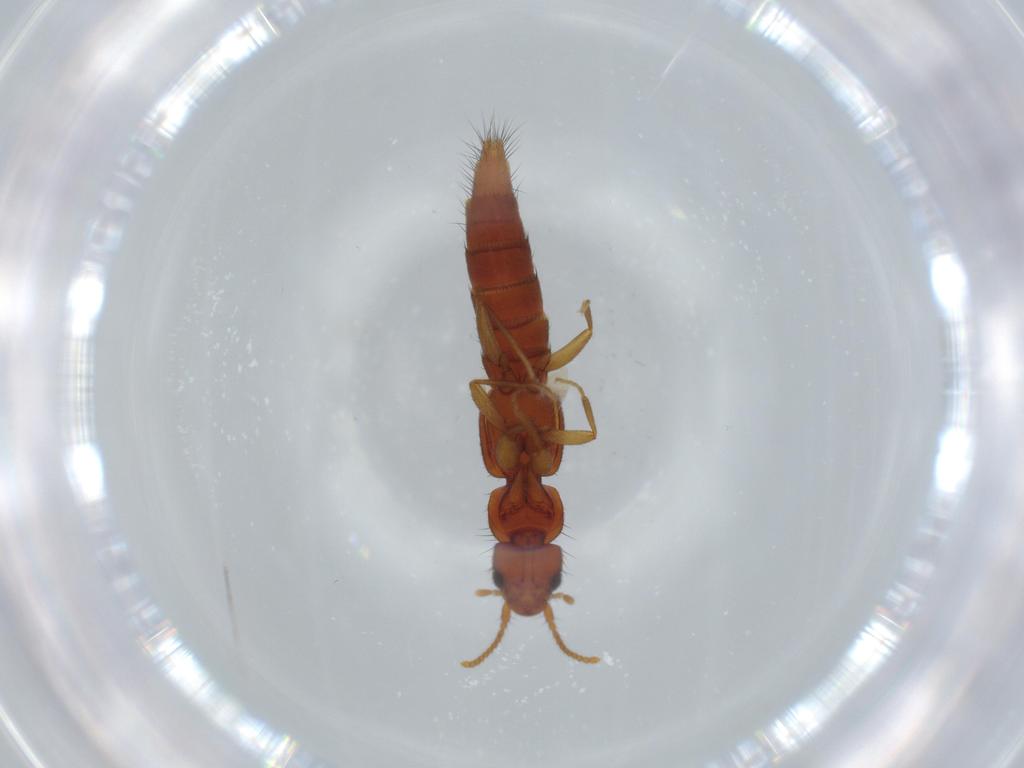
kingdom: Animalia
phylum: Arthropoda
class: Insecta
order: Coleoptera
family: Staphylinidae
